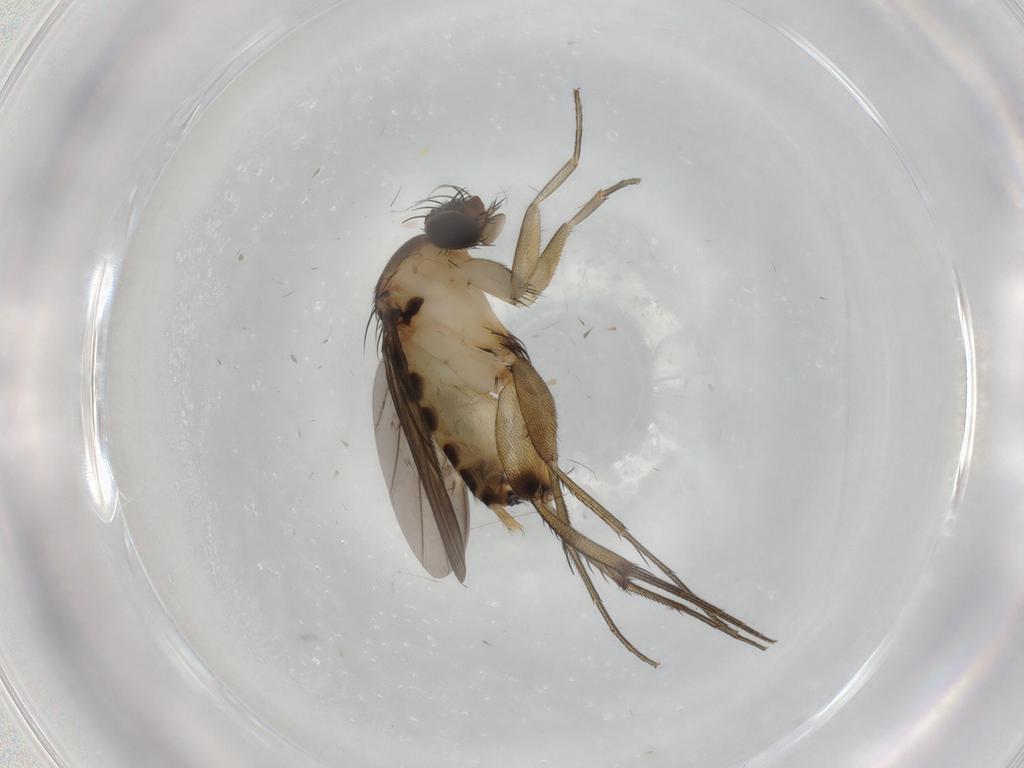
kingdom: Animalia
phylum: Arthropoda
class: Insecta
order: Diptera
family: Phoridae
